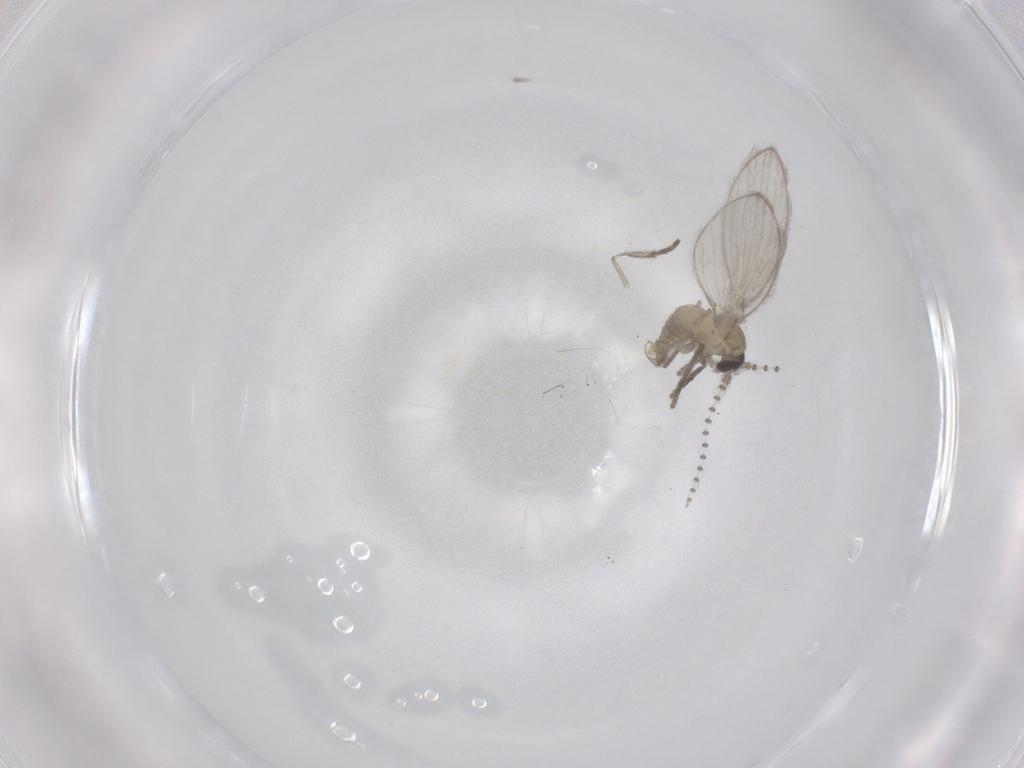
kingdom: Animalia
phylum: Arthropoda
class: Insecta
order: Diptera
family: Psychodidae
